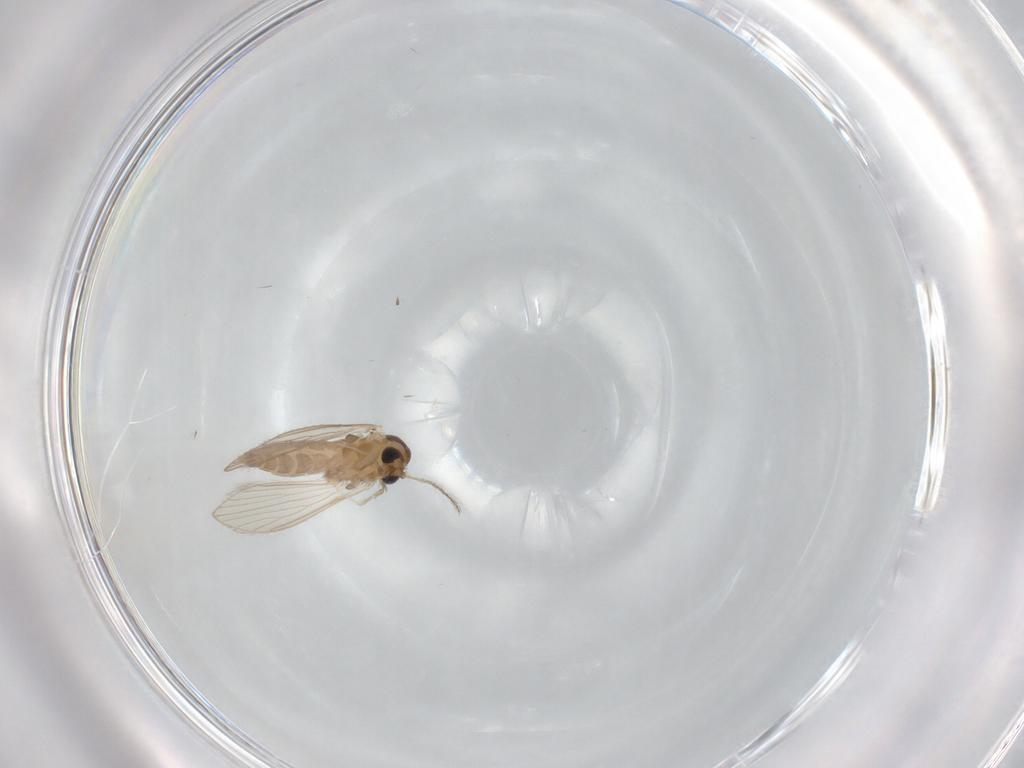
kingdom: Animalia
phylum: Arthropoda
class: Insecta
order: Diptera
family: Psychodidae
